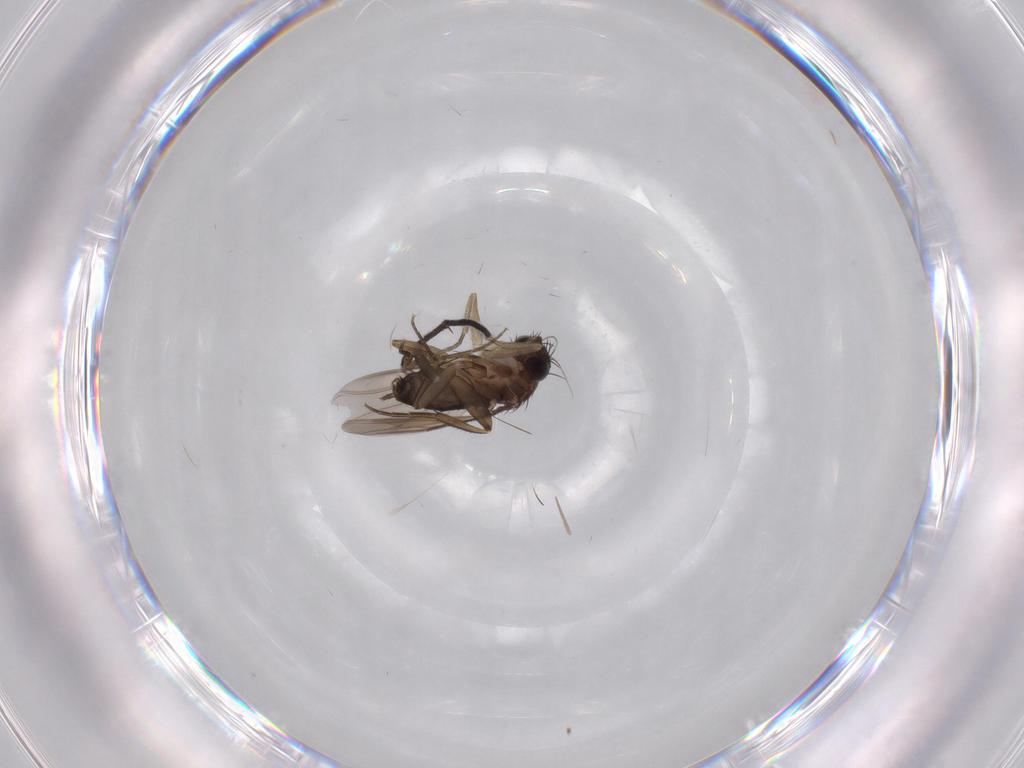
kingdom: Animalia
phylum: Arthropoda
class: Insecta
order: Diptera
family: Phoridae
